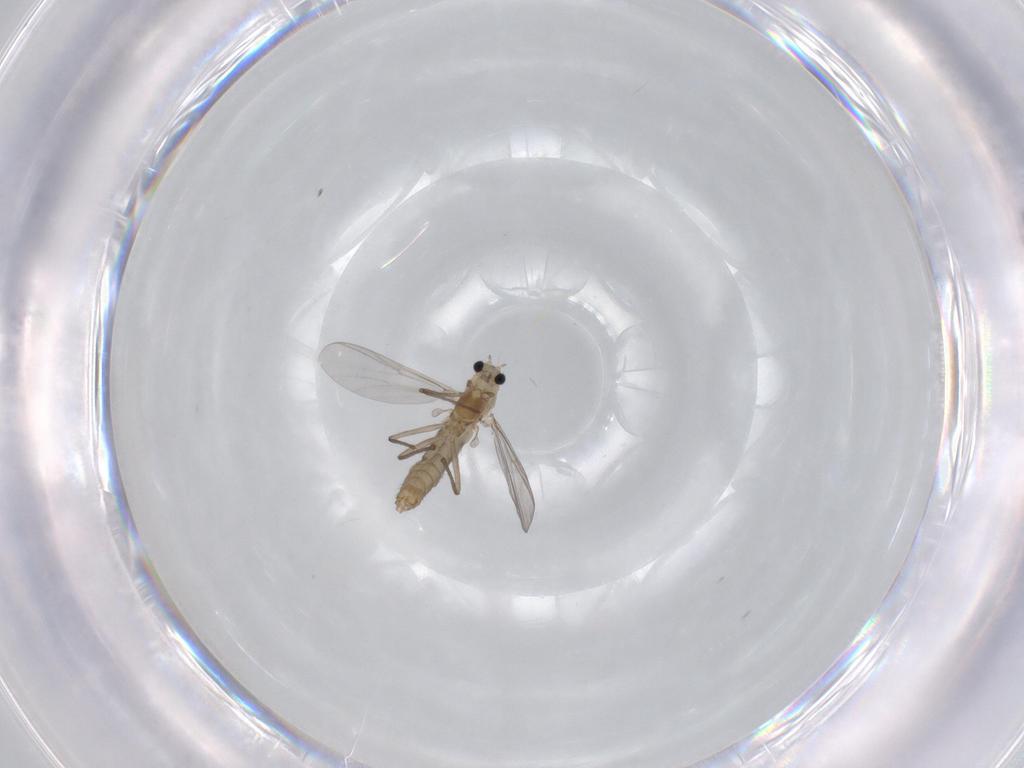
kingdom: Animalia
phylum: Arthropoda
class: Insecta
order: Diptera
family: Chironomidae
